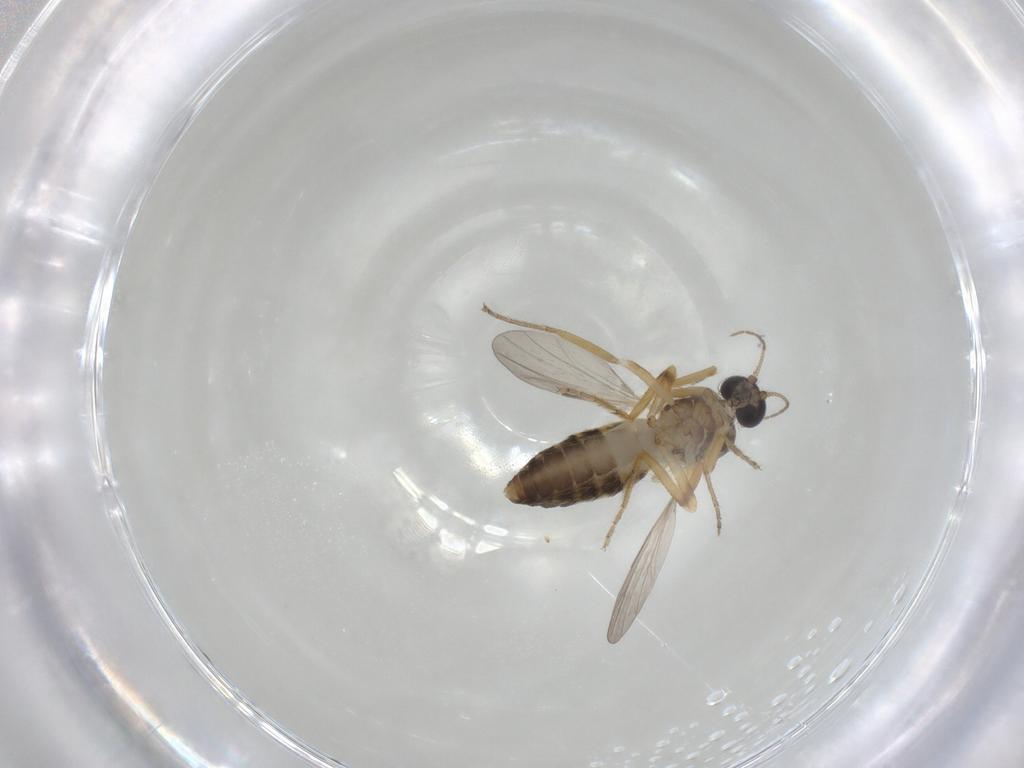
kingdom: Animalia
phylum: Arthropoda
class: Insecta
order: Diptera
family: Ceratopogonidae
